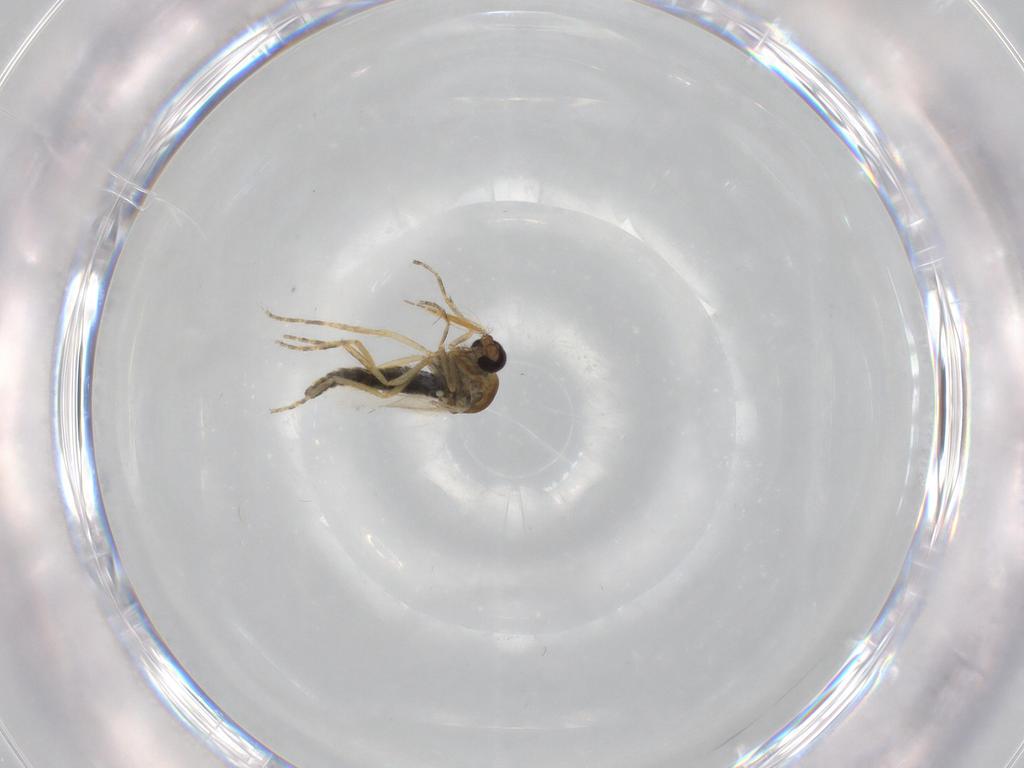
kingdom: Animalia
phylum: Arthropoda
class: Insecta
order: Diptera
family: Ceratopogonidae
